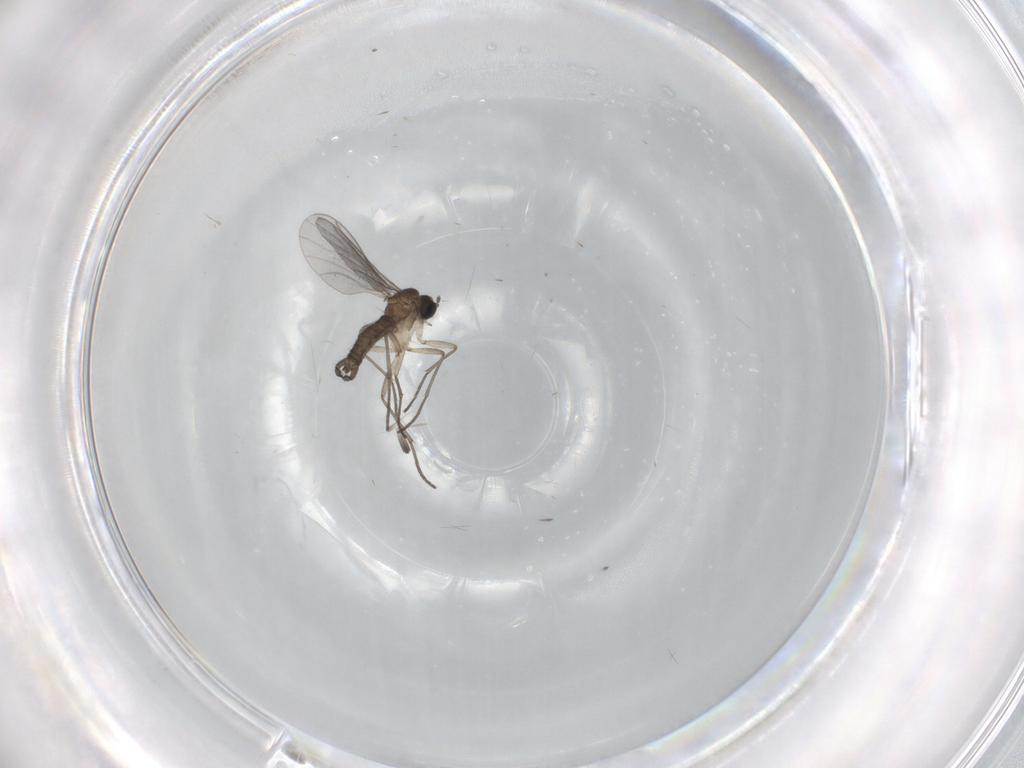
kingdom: Animalia
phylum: Arthropoda
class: Insecta
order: Diptera
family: Sciaridae
